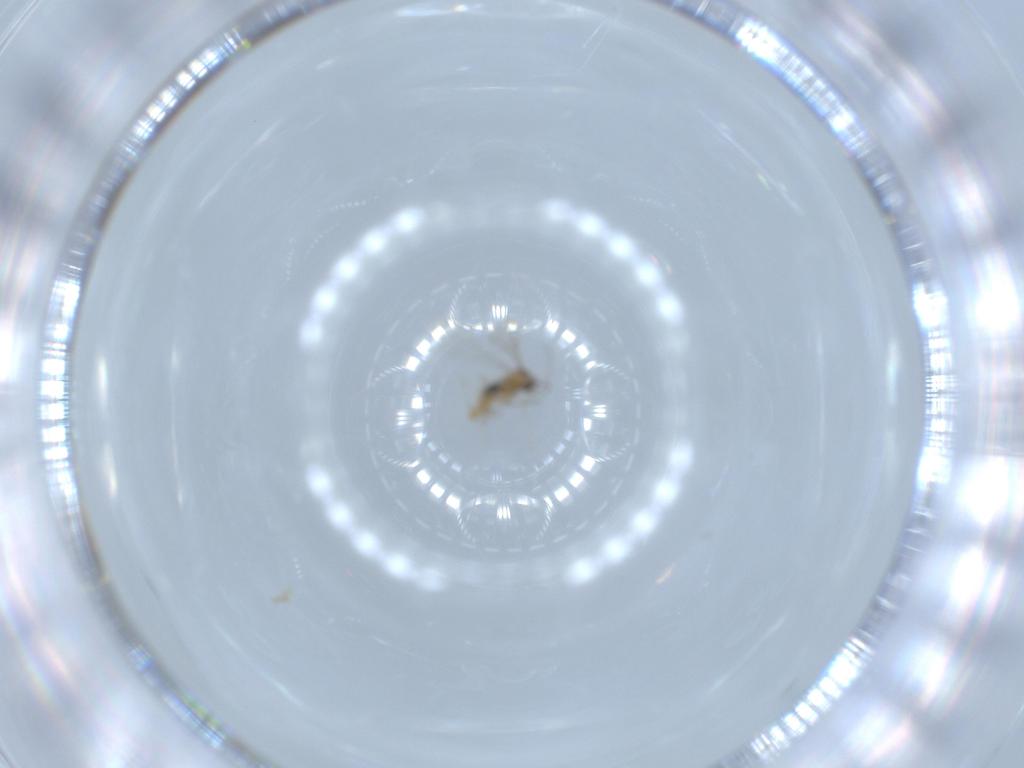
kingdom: Animalia
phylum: Arthropoda
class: Insecta
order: Diptera
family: Cecidomyiidae
